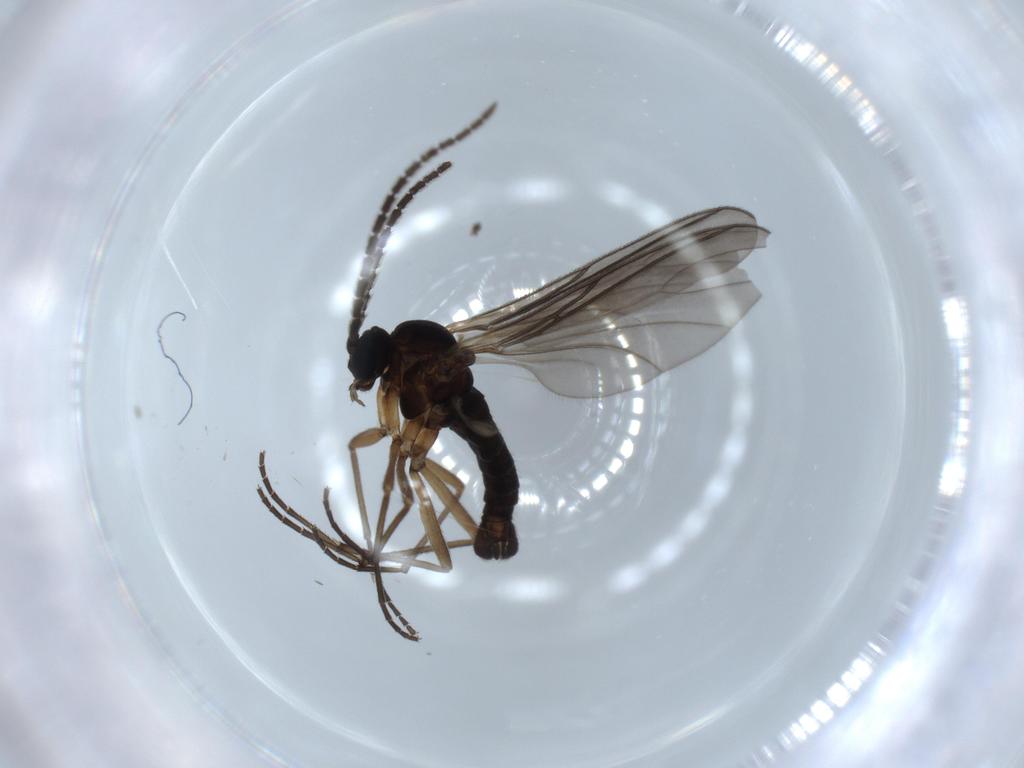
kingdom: Animalia
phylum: Arthropoda
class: Insecta
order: Diptera
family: Sciaridae
